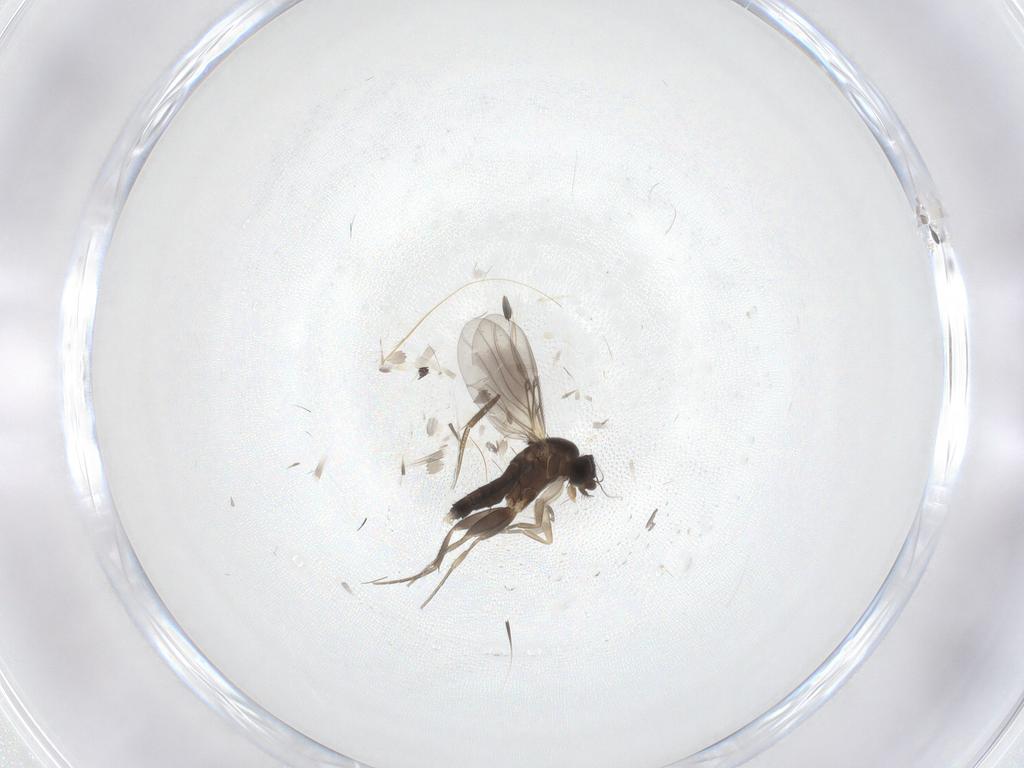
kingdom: Animalia
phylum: Arthropoda
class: Insecta
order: Diptera
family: Phoridae
